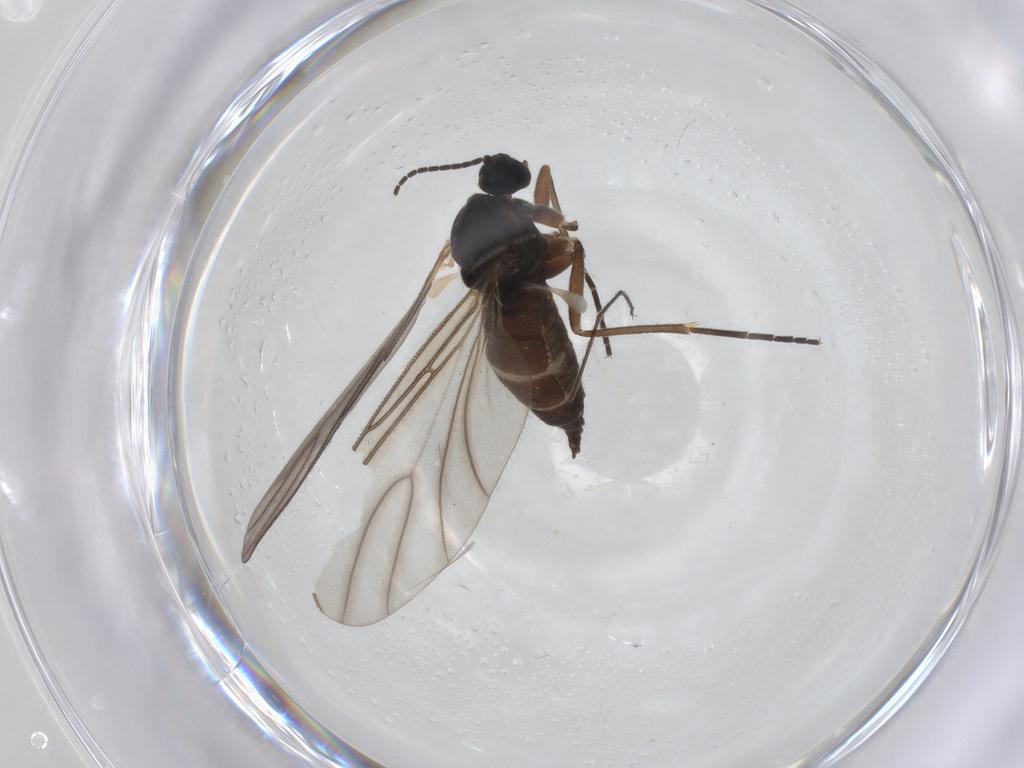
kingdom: Animalia
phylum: Arthropoda
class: Insecta
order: Diptera
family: Sciaridae
